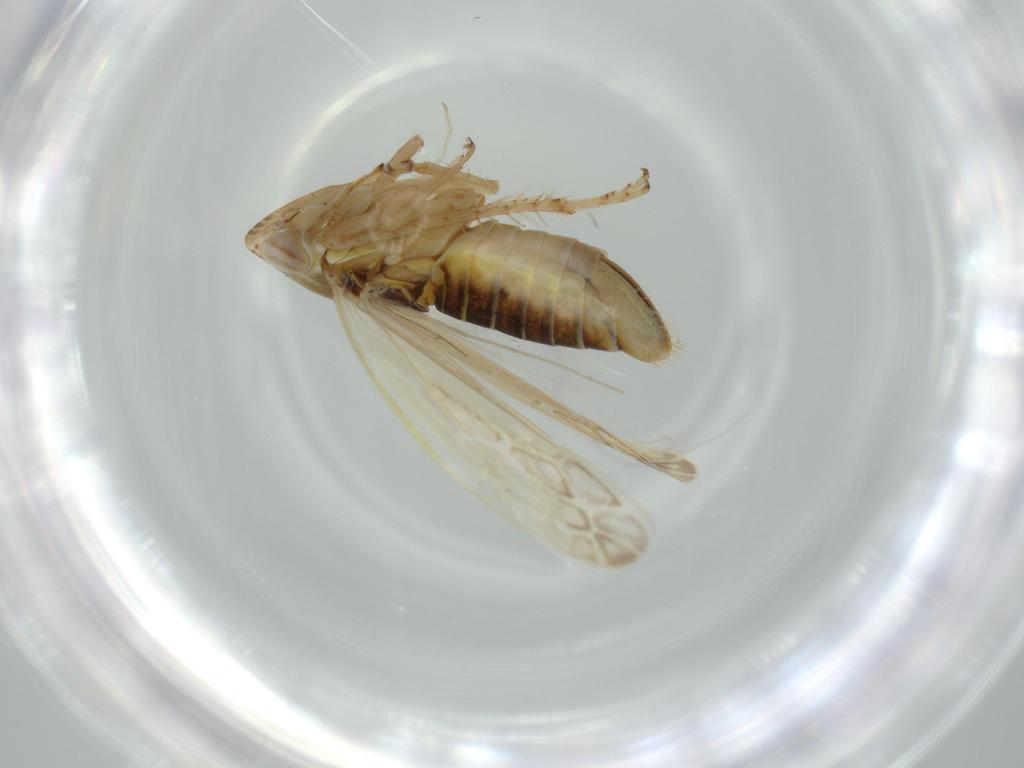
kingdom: Animalia
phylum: Arthropoda
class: Insecta
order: Hemiptera
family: Cicadellidae
